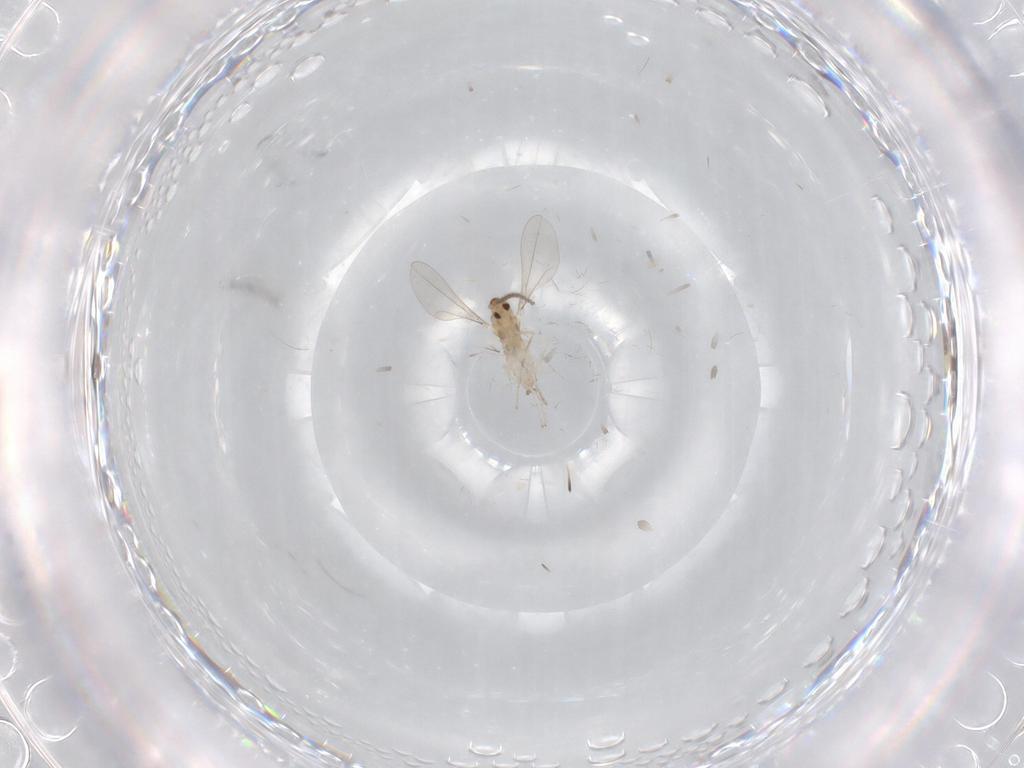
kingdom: Animalia
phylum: Arthropoda
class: Insecta
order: Diptera
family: Cecidomyiidae
